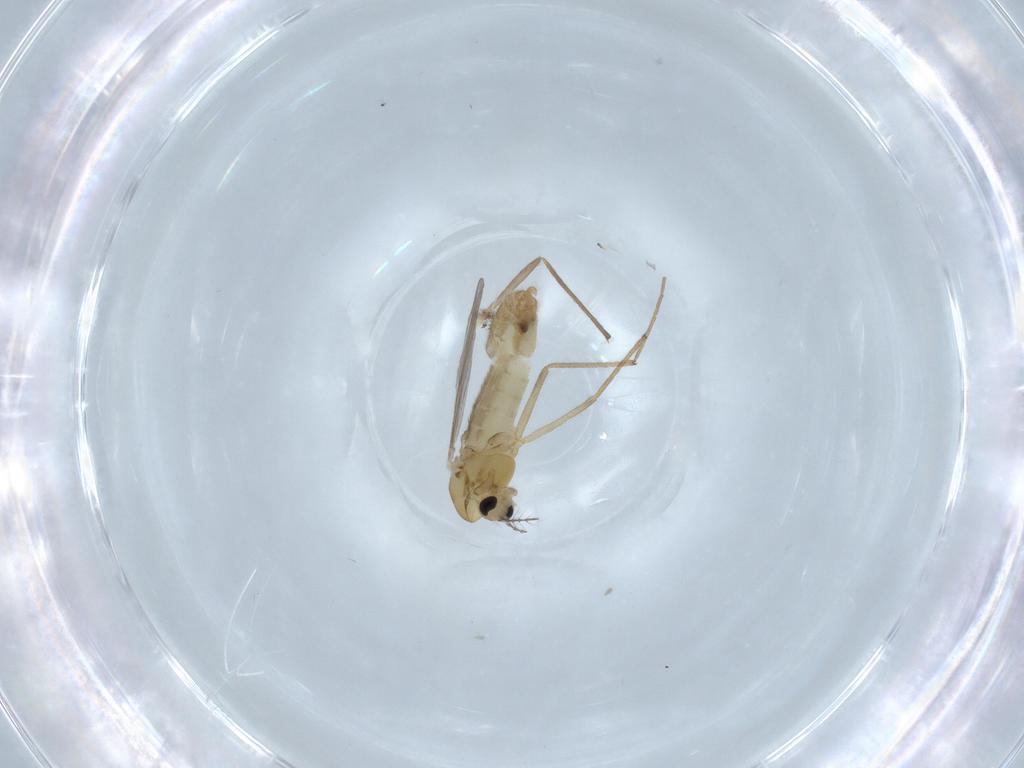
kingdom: Animalia
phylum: Arthropoda
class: Insecta
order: Diptera
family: Chironomidae
